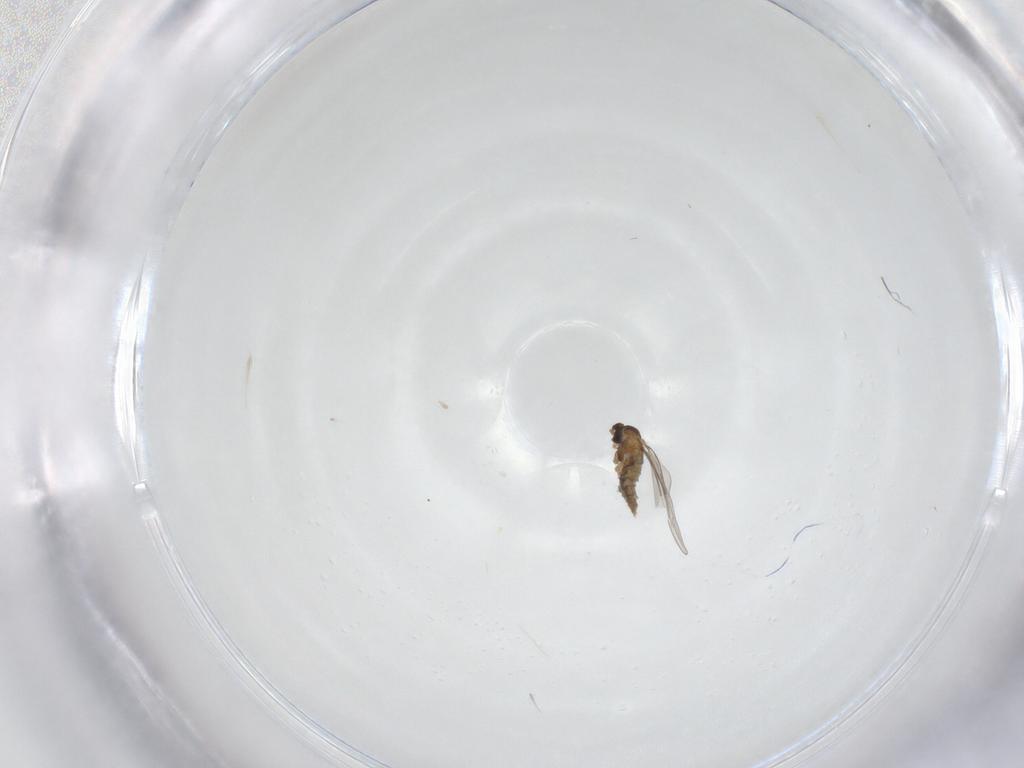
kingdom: Animalia
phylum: Arthropoda
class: Insecta
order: Diptera
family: Cecidomyiidae
